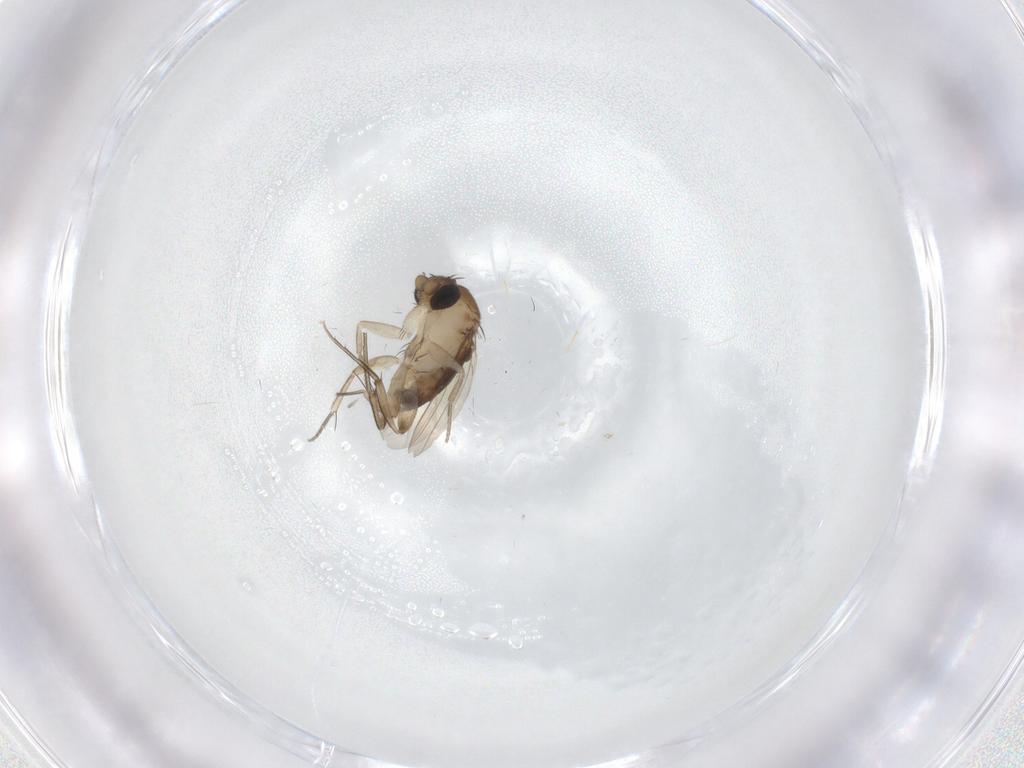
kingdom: Animalia
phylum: Arthropoda
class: Insecta
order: Diptera
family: Phoridae
